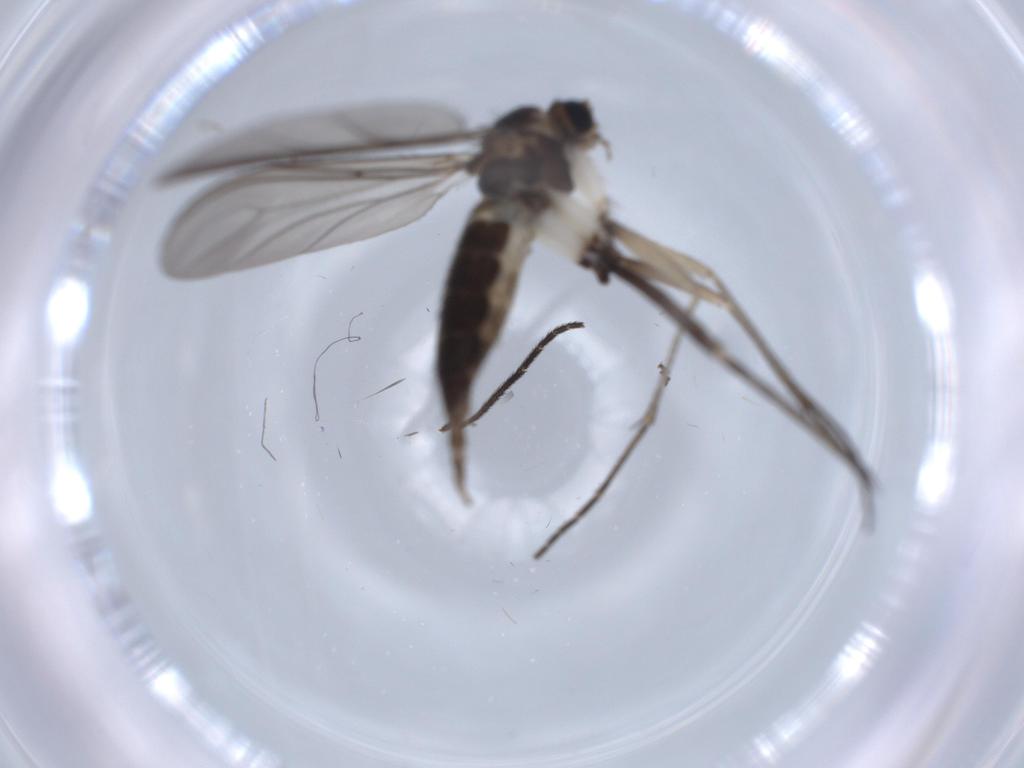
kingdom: Animalia
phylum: Arthropoda
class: Insecta
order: Diptera
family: Sciaridae
